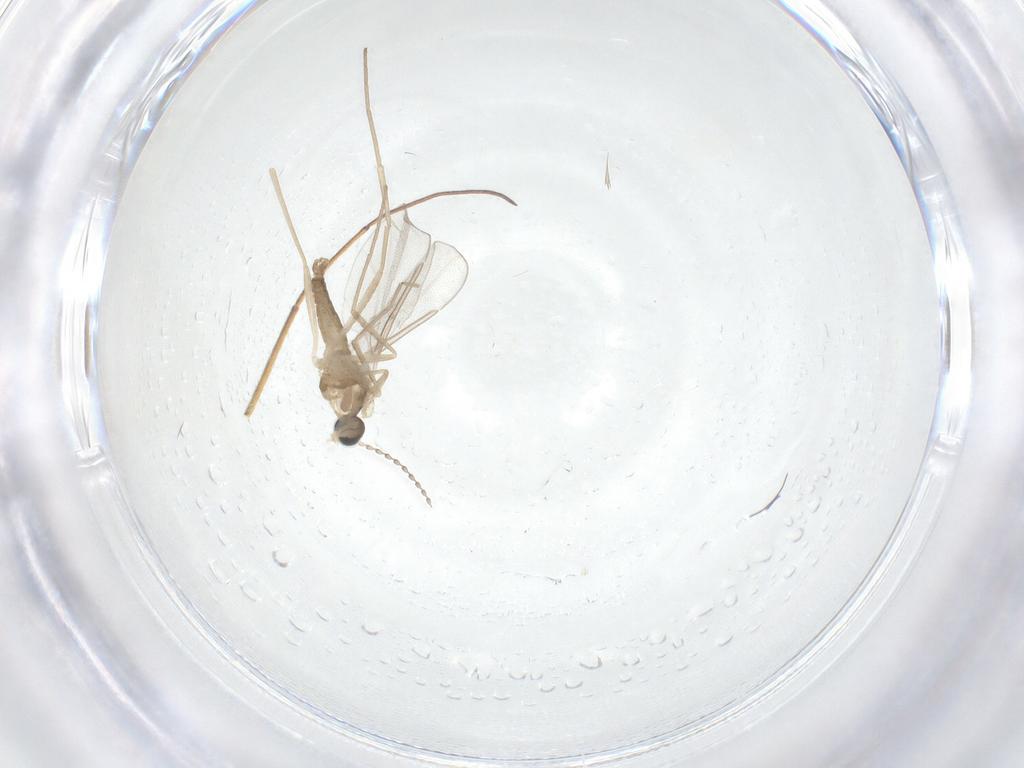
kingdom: Animalia
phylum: Arthropoda
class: Insecta
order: Diptera
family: Cecidomyiidae
